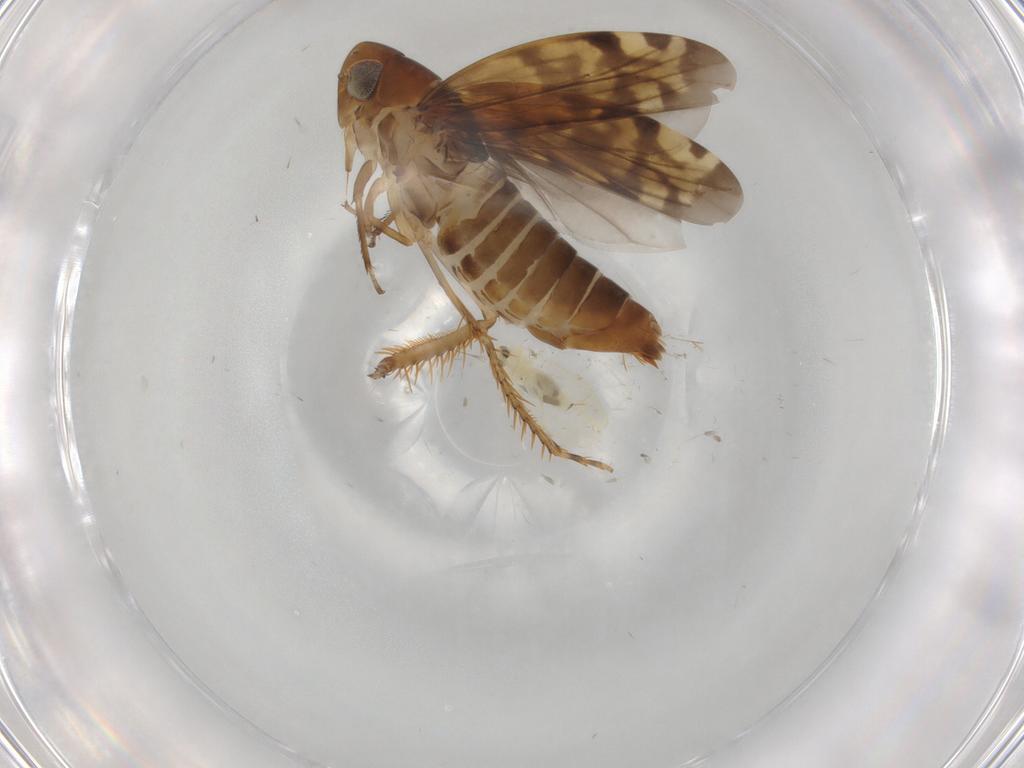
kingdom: Animalia
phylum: Arthropoda
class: Insecta
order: Hemiptera
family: Cicadellidae
